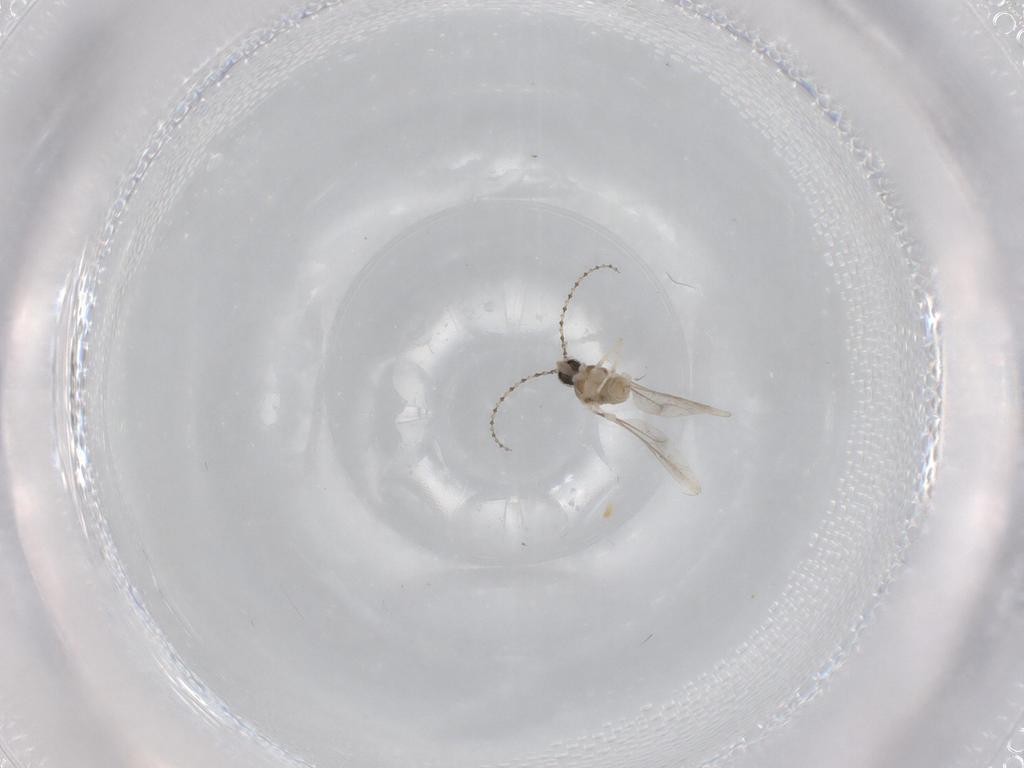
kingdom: Animalia
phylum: Arthropoda
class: Insecta
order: Diptera
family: Cecidomyiidae
